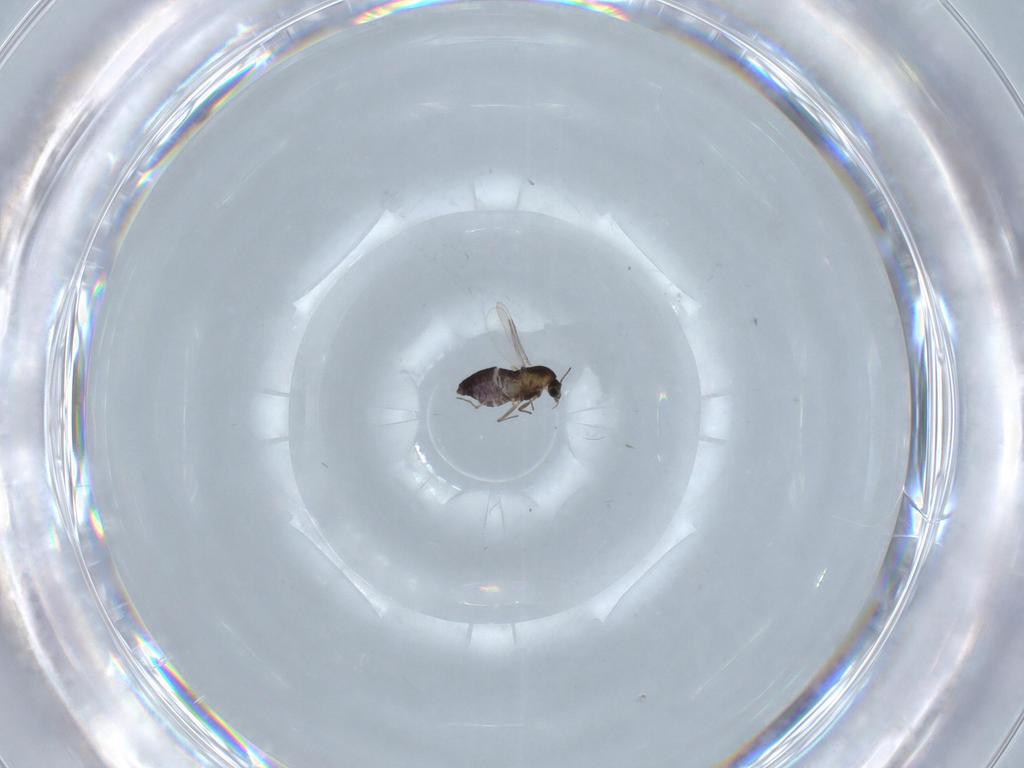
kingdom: Animalia
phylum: Arthropoda
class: Insecta
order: Diptera
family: Chironomidae
